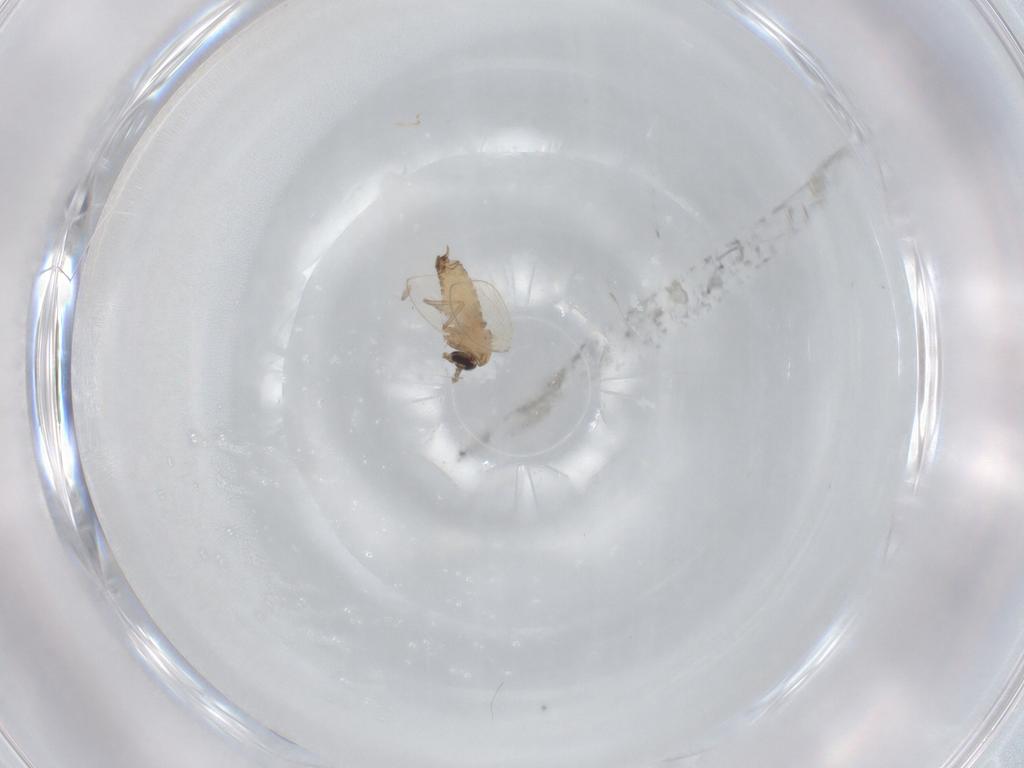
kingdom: Animalia
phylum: Arthropoda
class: Insecta
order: Diptera
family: Psychodidae
